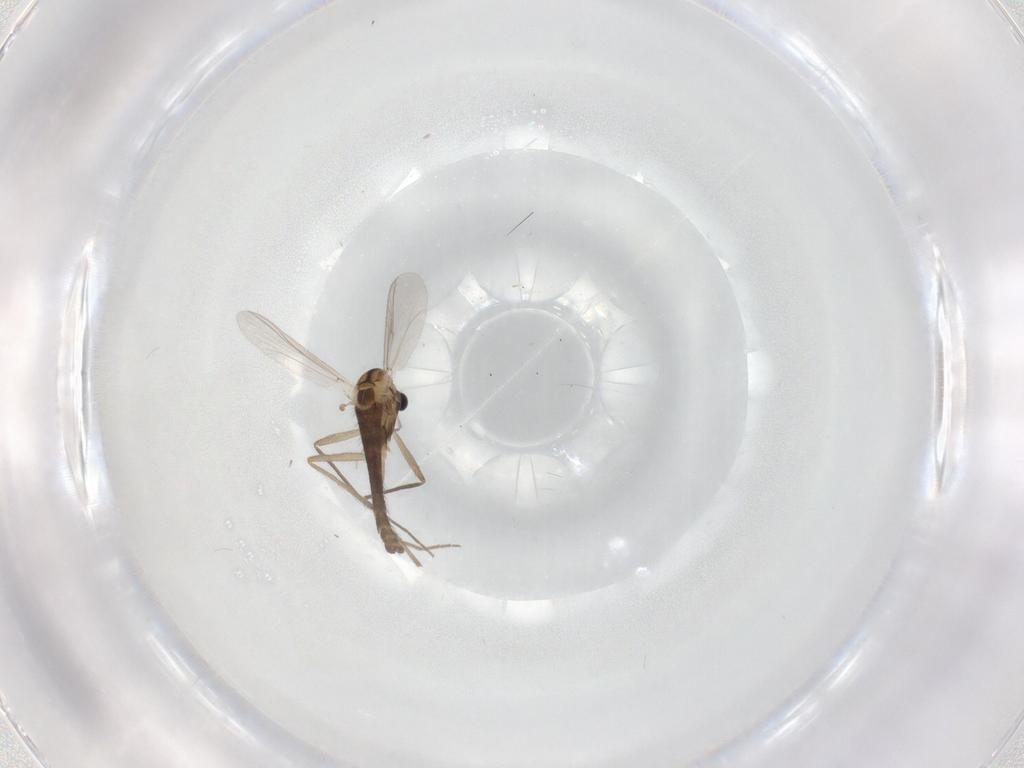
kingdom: Animalia
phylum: Arthropoda
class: Insecta
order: Diptera
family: Chironomidae
